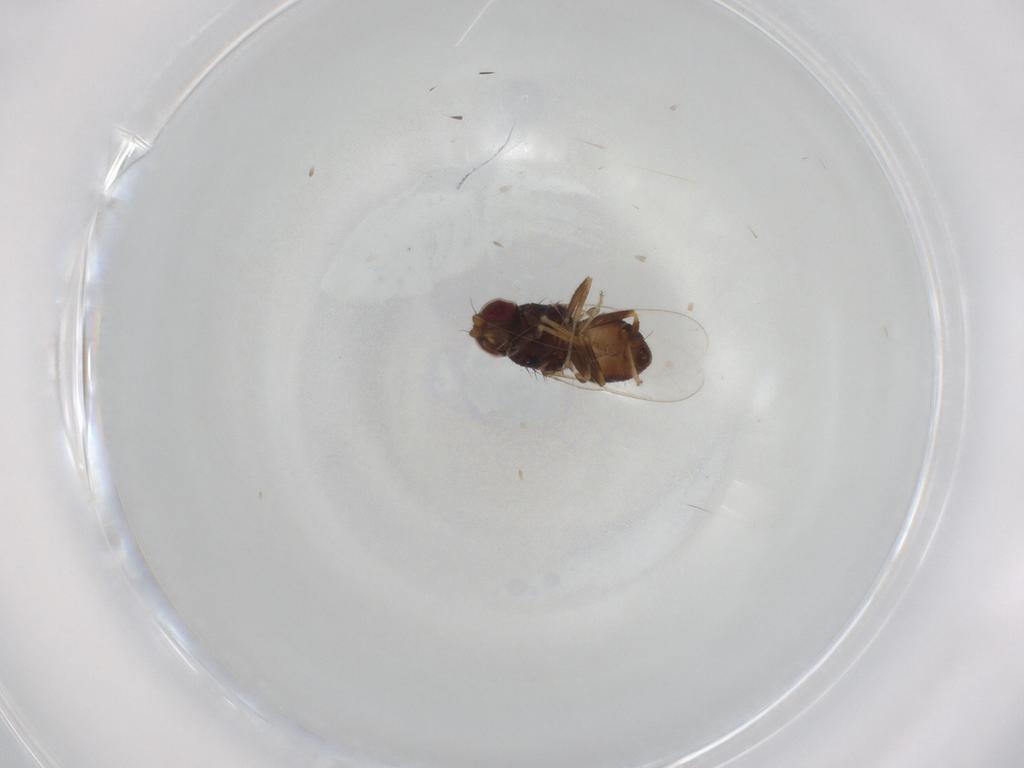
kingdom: Animalia
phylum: Arthropoda
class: Insecta
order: Diptera
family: Chloropidae
